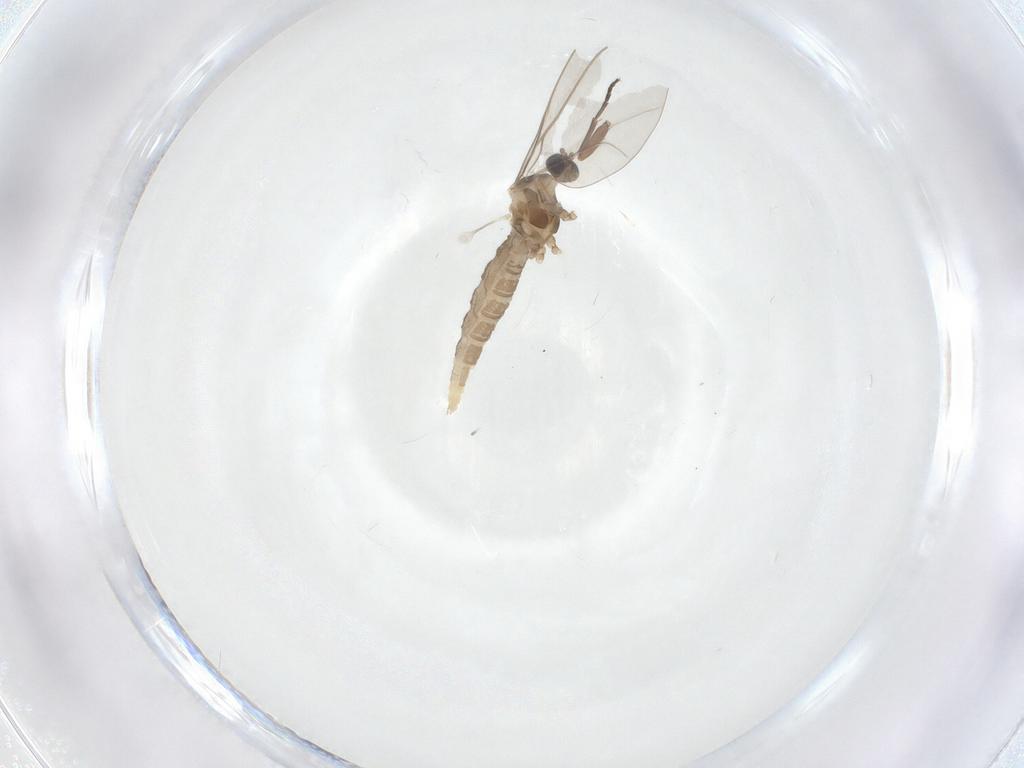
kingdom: Animalia
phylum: Arthropoda
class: Insecta
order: Diptera
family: Cecidomyiidae
